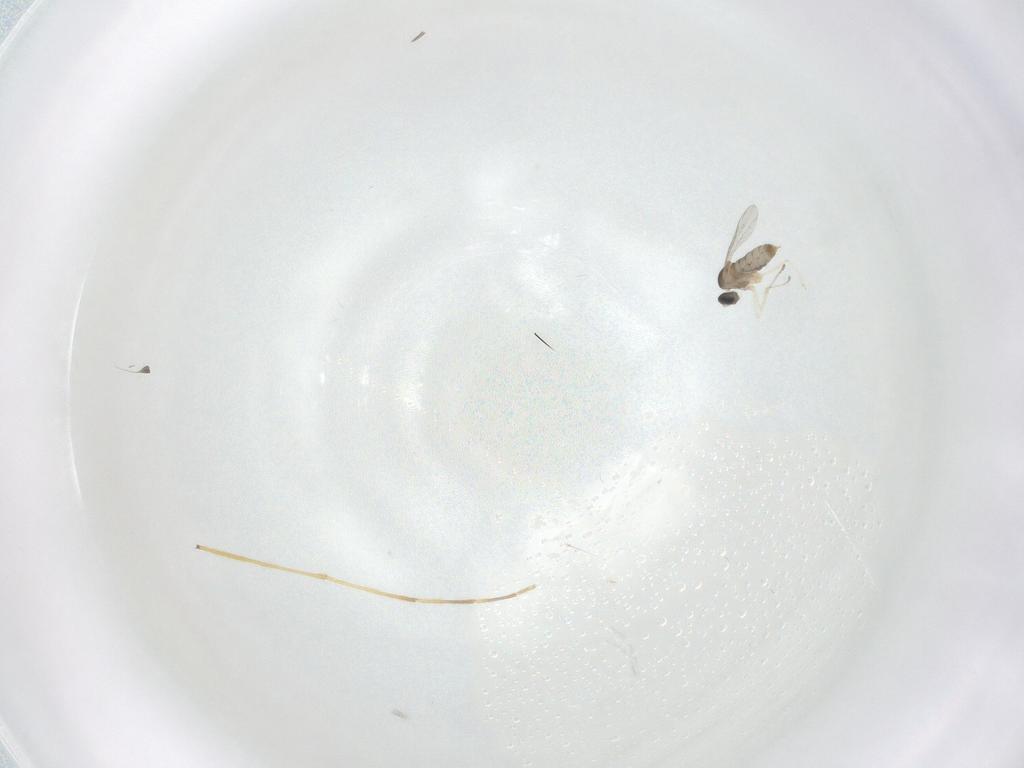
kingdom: Animalia
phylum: Arthropoda
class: Insecta
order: Diptera
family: Cecidomyiidae
